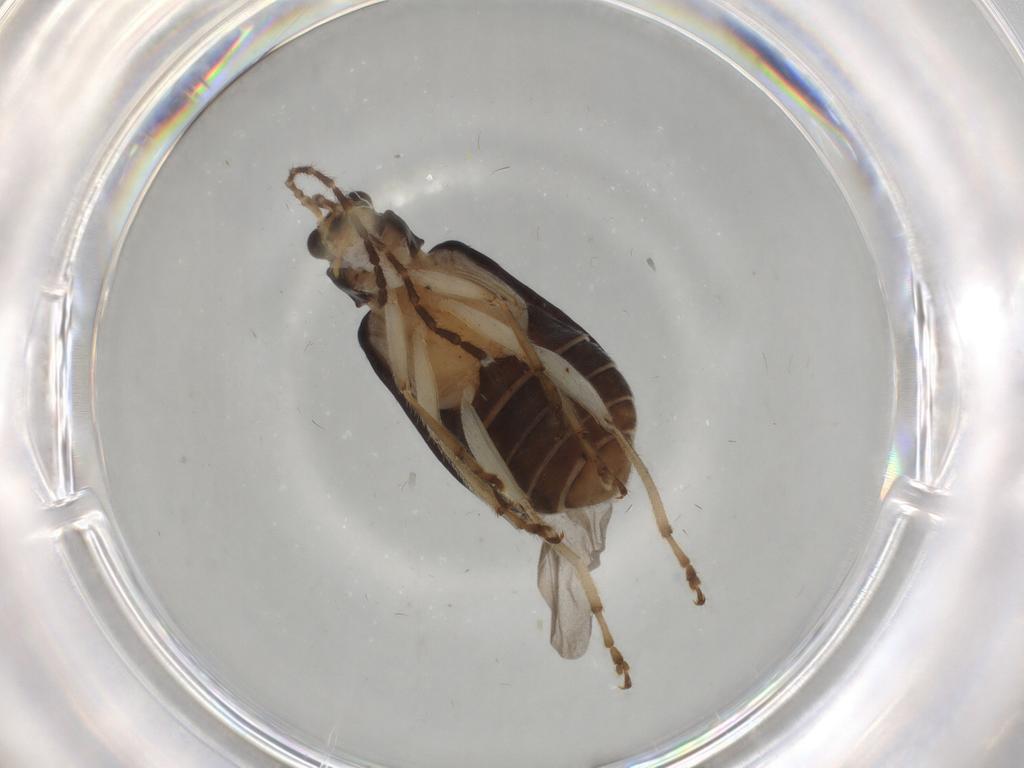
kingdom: Animalia
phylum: Arthropoda
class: Insecta
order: Coleoptera
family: Chrysomelidae
